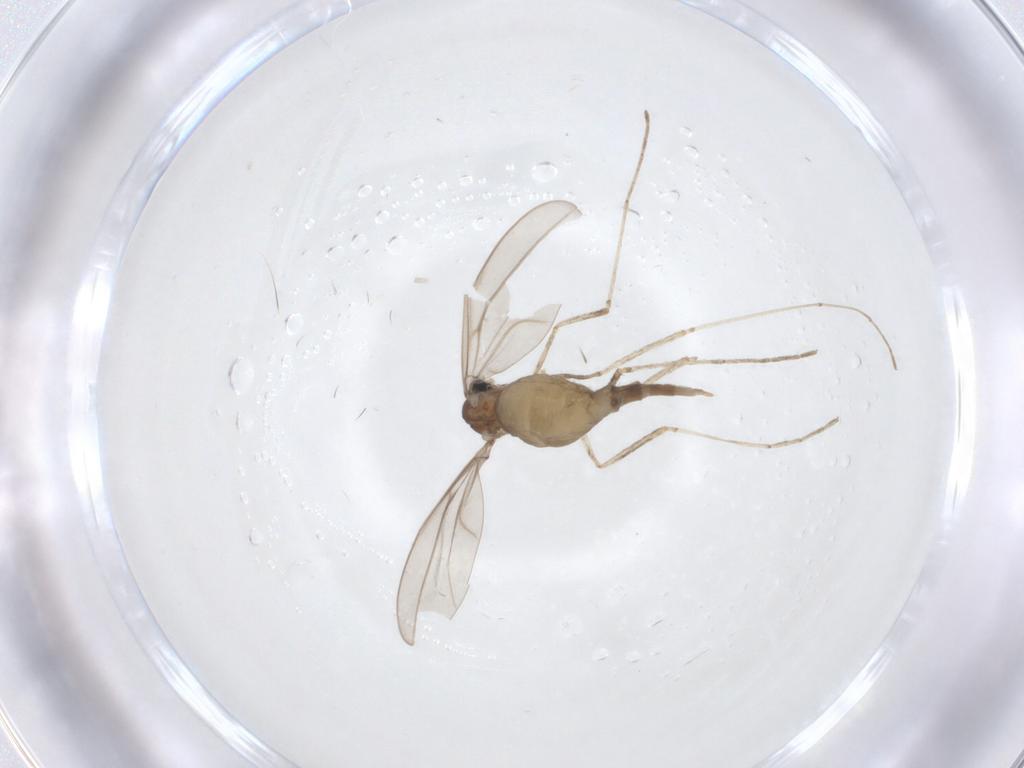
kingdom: Animalia
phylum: Arthropoda
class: Insecta
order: Diptera
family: Cecidomyiidae
